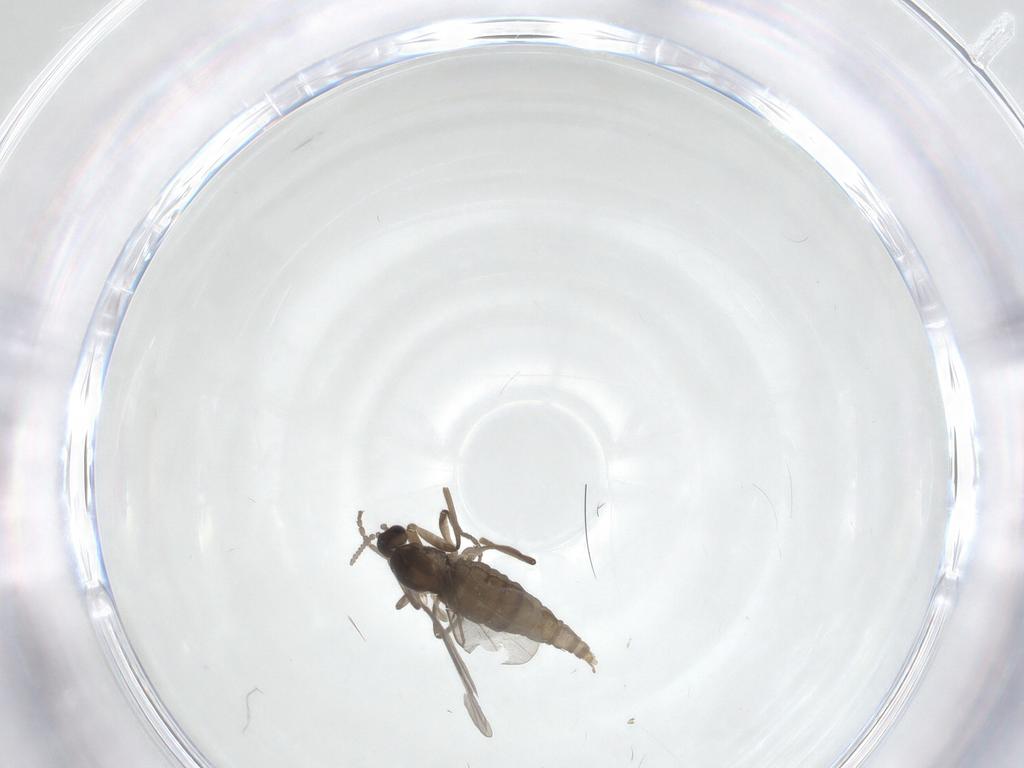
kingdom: Animalia
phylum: Arthropoda
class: Insecta
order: Diptera
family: Cecidomyiidae
